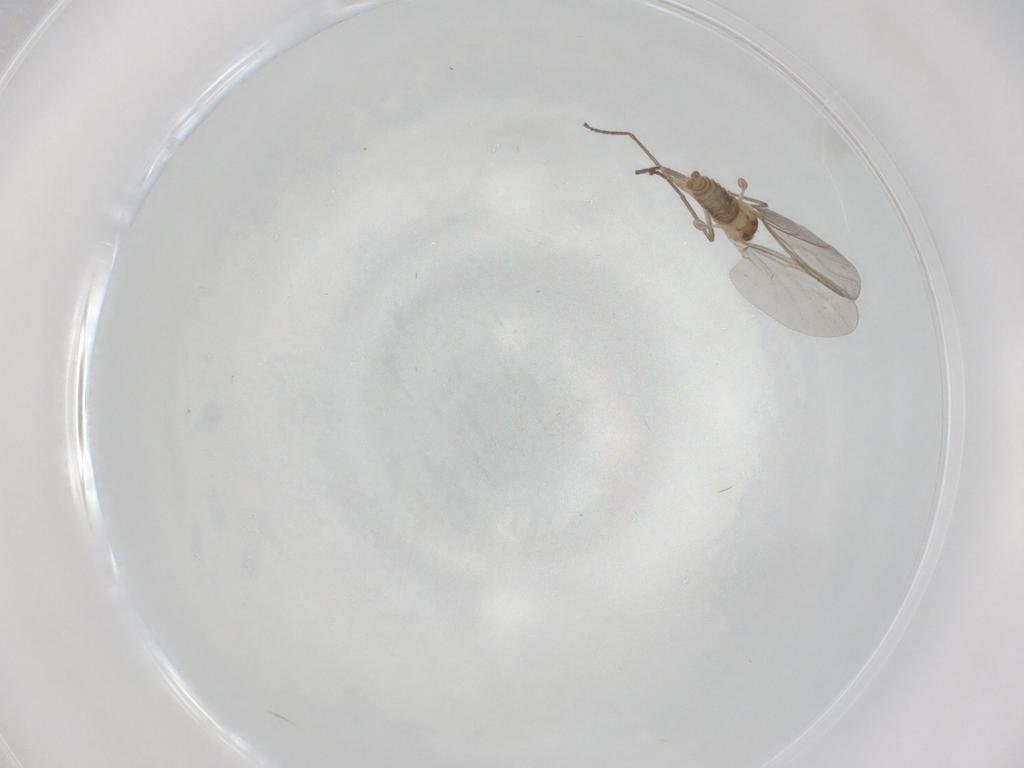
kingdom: Animalia
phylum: Arthropoda
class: Insecta
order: Diptera
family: Cecidomyiidae
